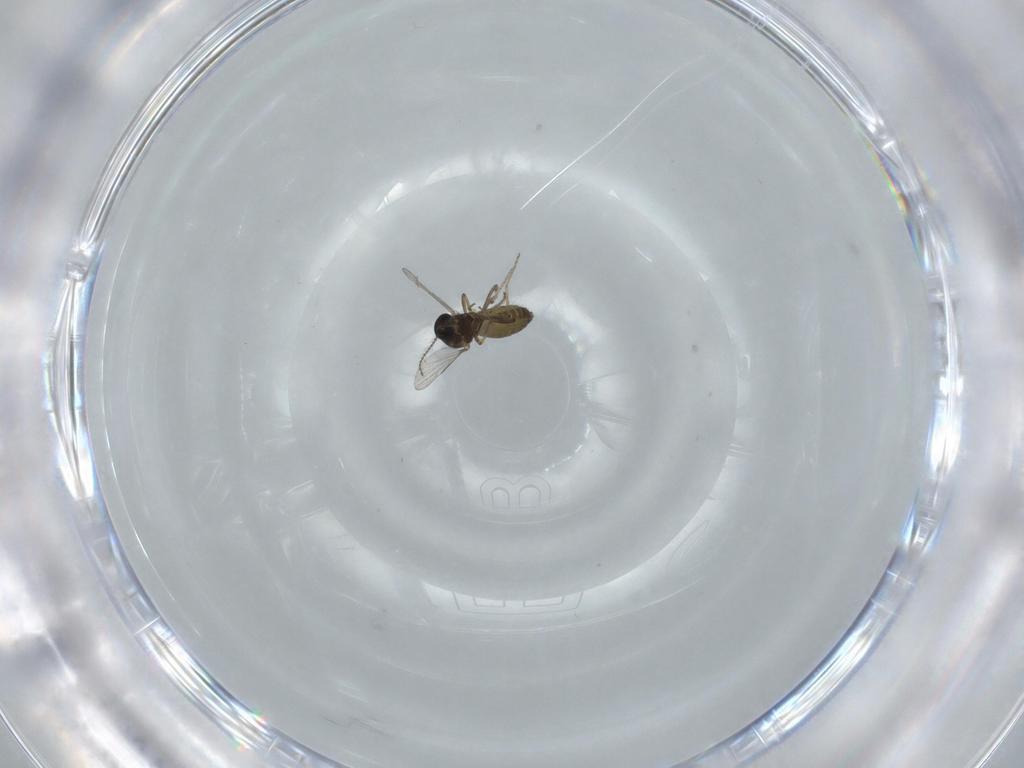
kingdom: Animalia
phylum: Arthropoda
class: Insecta
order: Diptera
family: Ceratopogonidae
